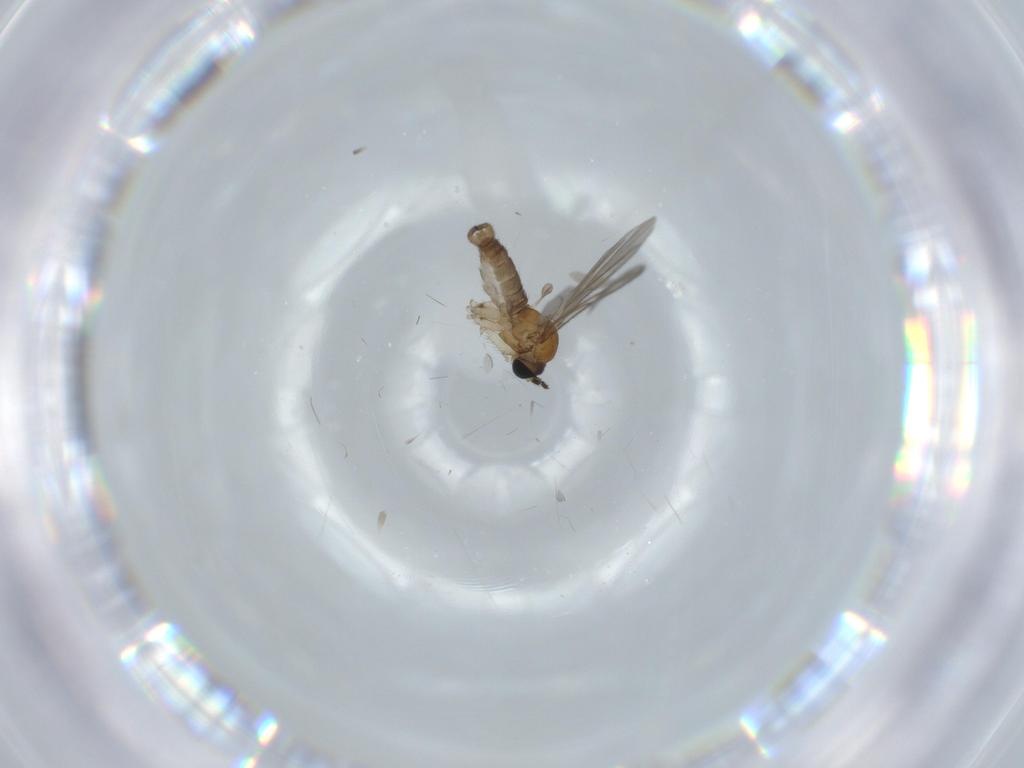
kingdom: Animalia
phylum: Arthropoda
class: Insecta
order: Diptera
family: Sciaridae
